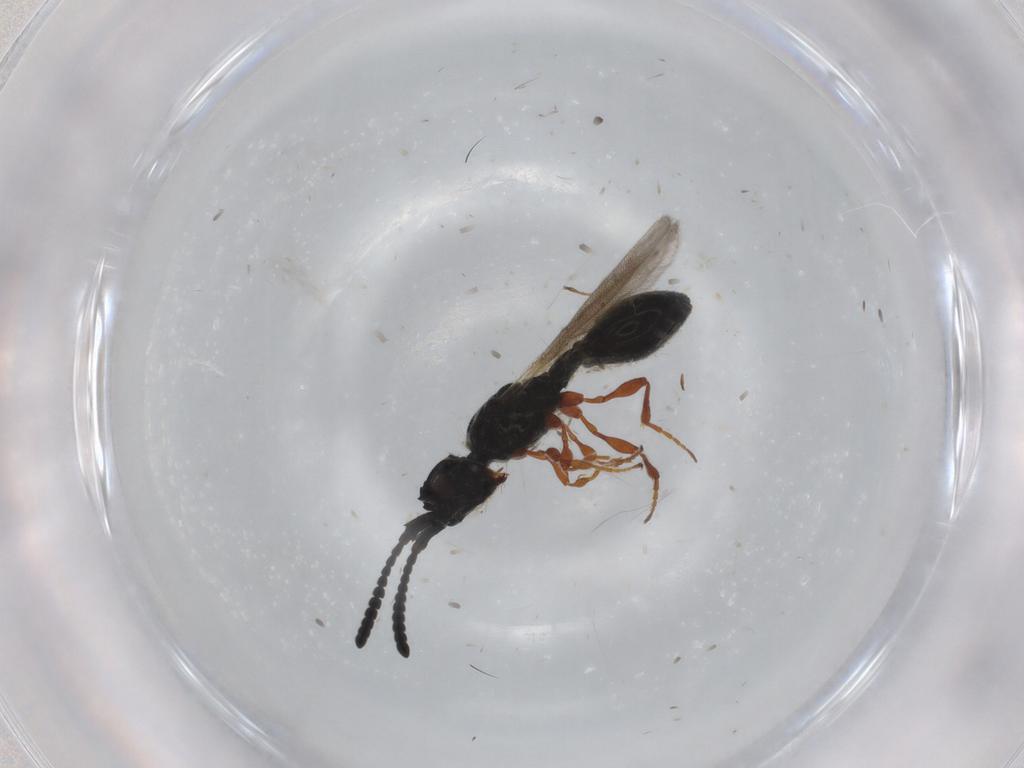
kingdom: Animalia
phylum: Arthropoda
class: Insecta
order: Hymenoptera
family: Diapriidae
